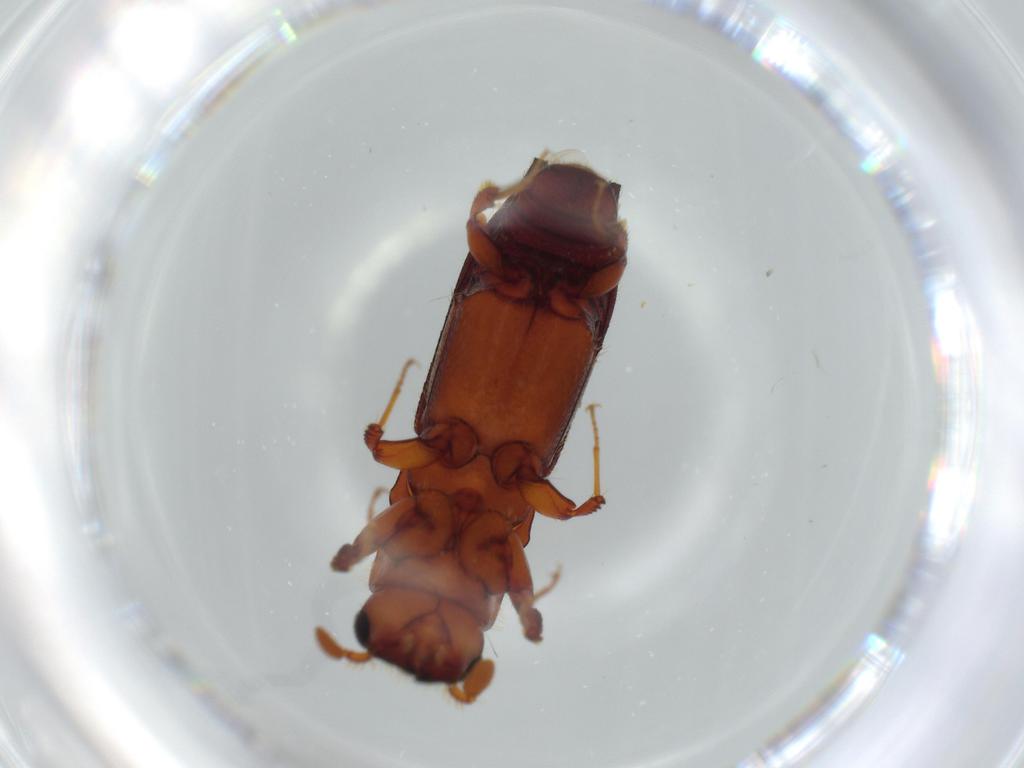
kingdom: Animalia
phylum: Arthropoda
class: Insecta
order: Coleoptera
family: Curculionidae
